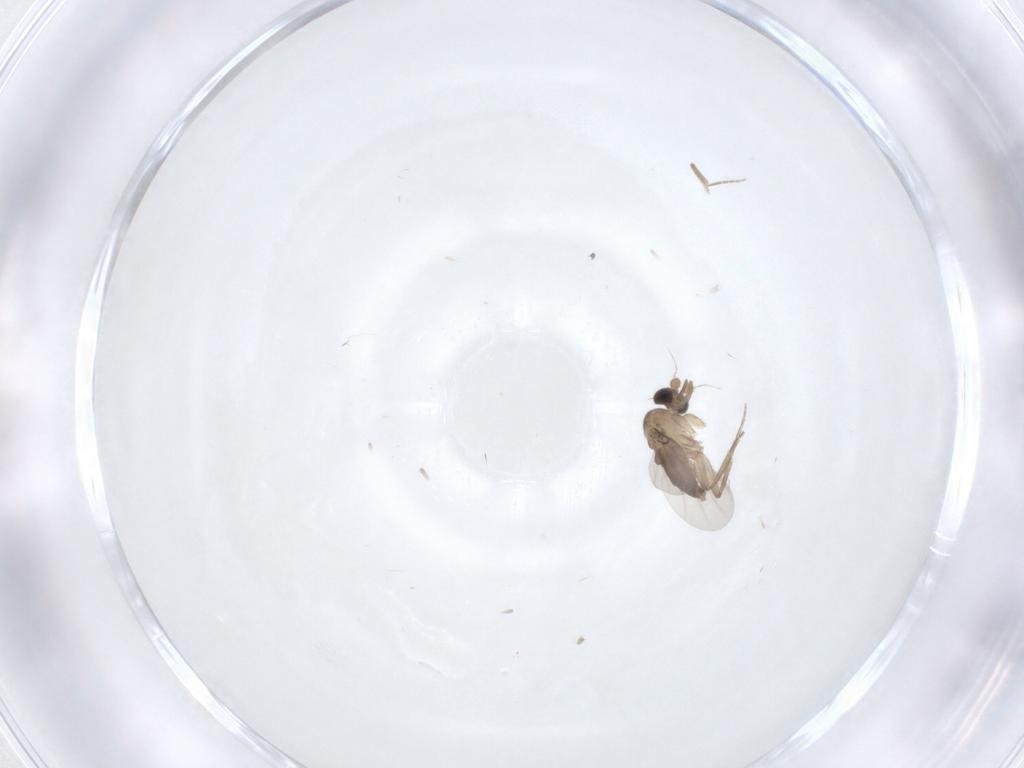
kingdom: Animalia
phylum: Arthropoda
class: Insecta
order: Diptera
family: Phoridae
